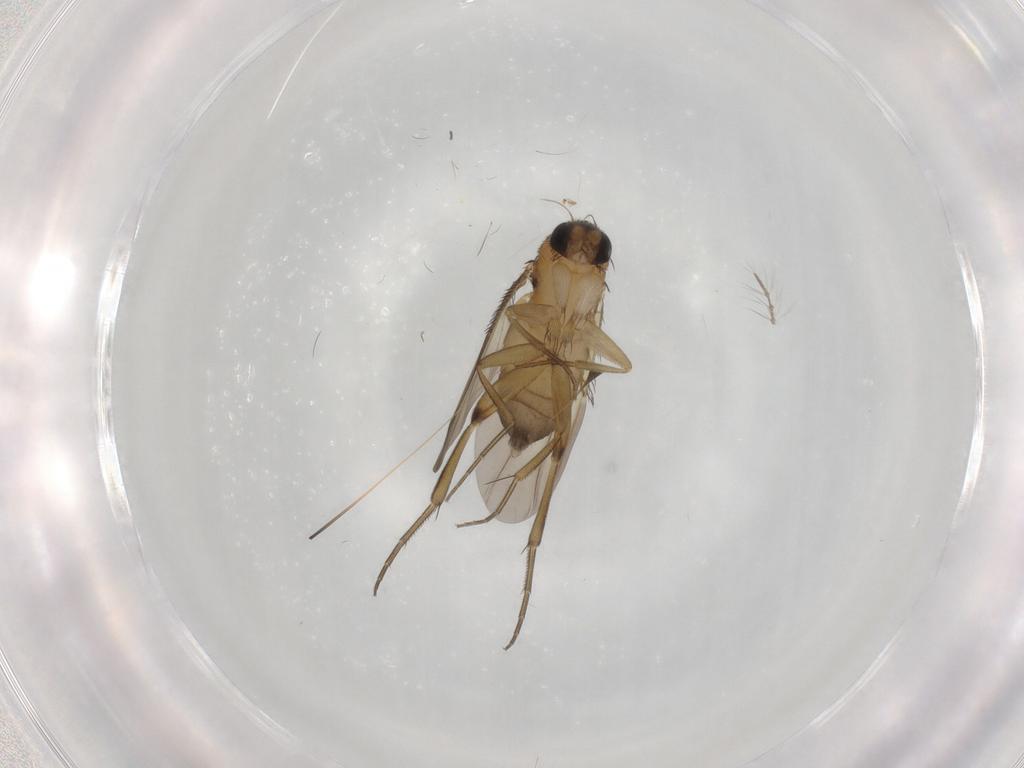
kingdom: Animalia
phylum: Arthropoda
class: Insecta
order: Diptera
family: Phoridae
